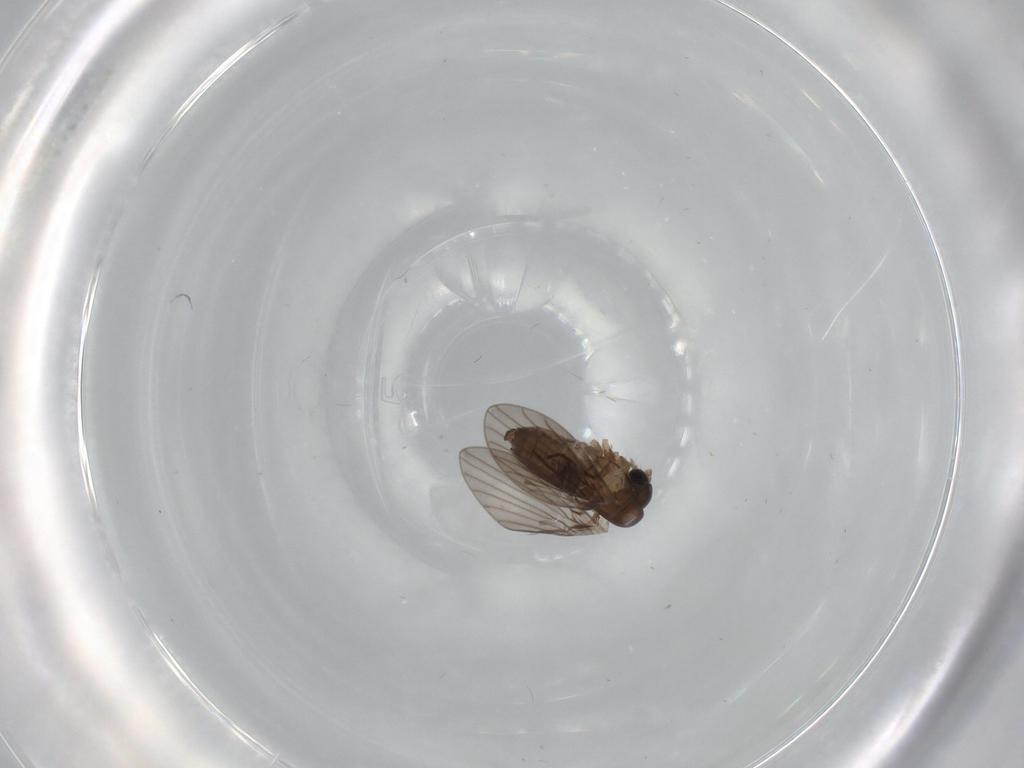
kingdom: Animalia
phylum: Arthropoda
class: Insecta
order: Diptera
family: Psychodidae
